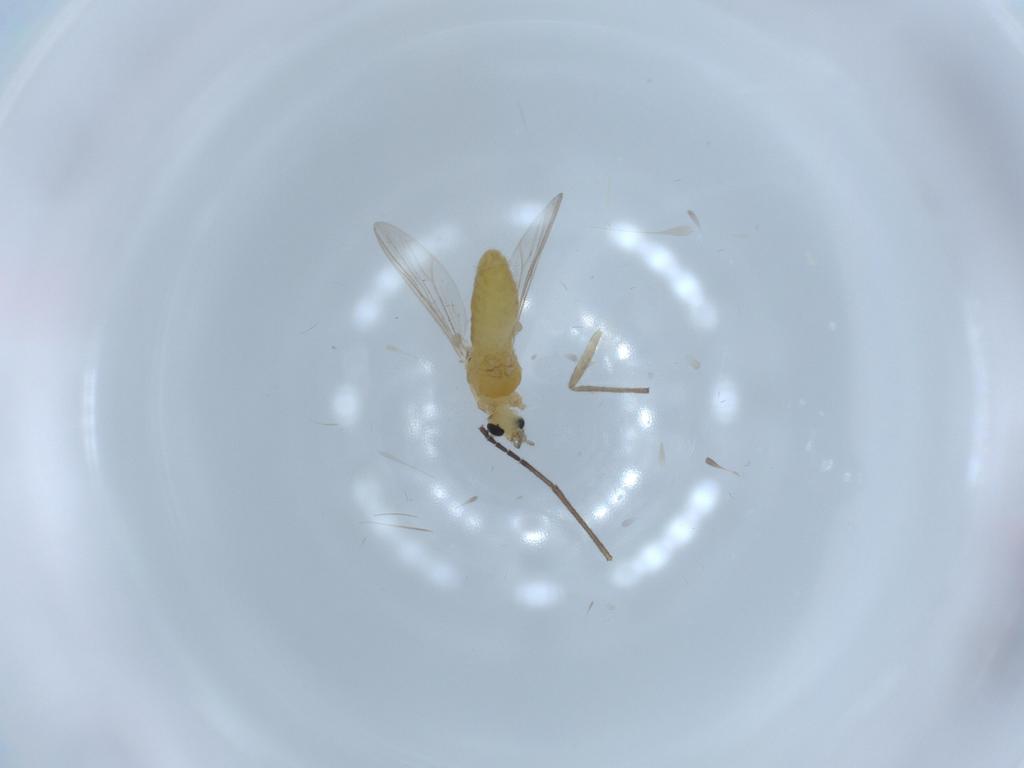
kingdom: Animalia
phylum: Arthropoda
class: Insecta
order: Diptera
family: Chironomidae
